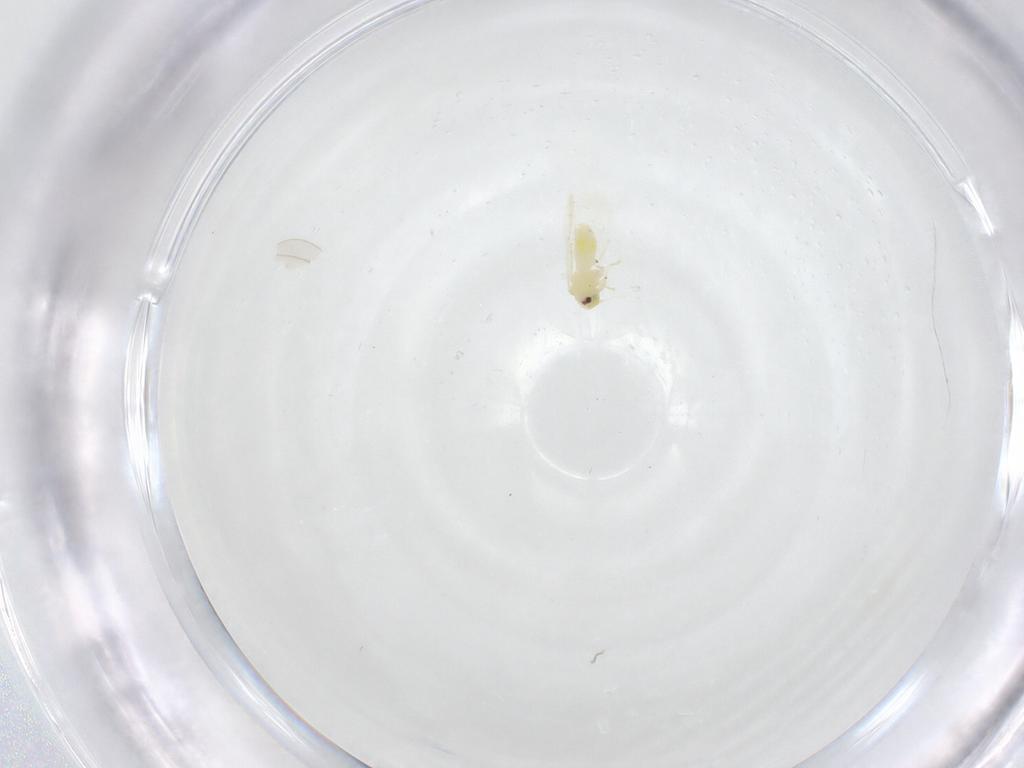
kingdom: Animalia
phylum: Arthropoda
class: Insecta
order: Hemiptera
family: Aleyrodidae
